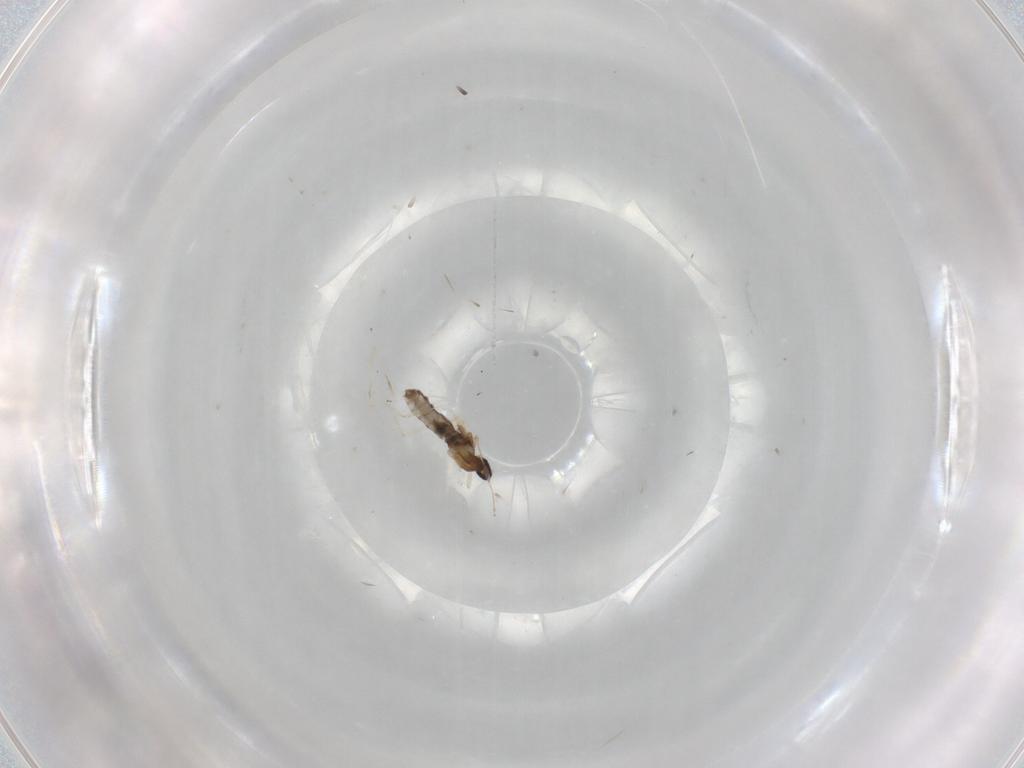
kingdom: Animalia
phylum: Arthropoda
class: Insecta
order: Diptera
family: Cecidomyiidae
